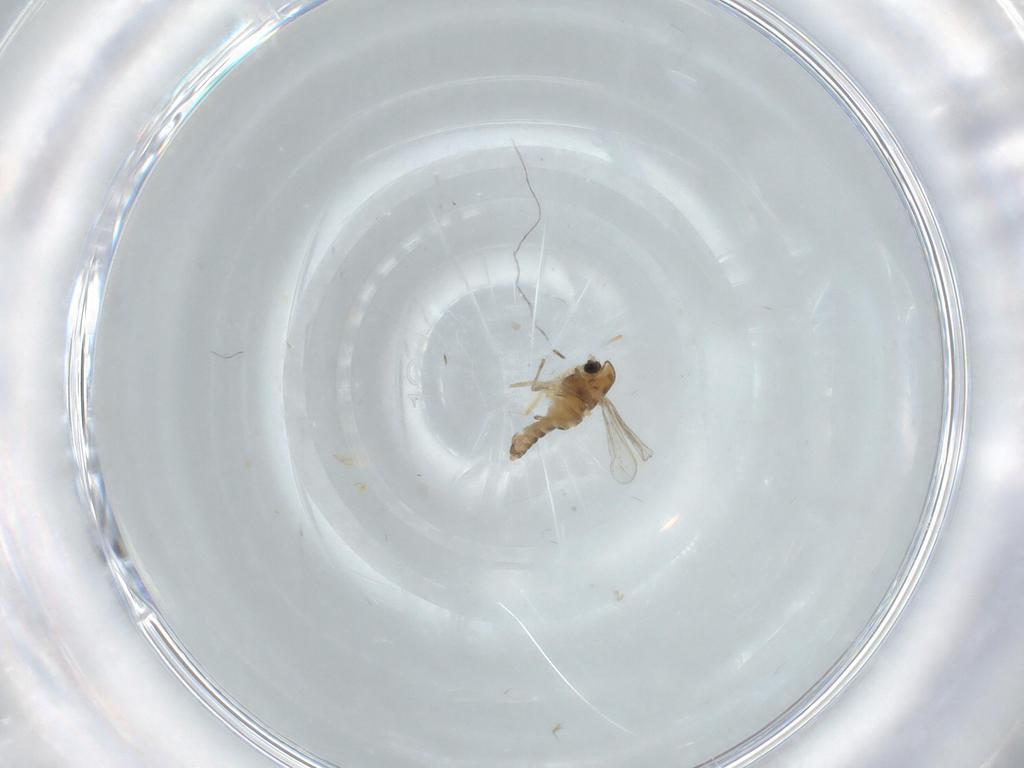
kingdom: Animalia
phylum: Arthropoda
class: Insecta
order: Diptera
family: Chironomidae
